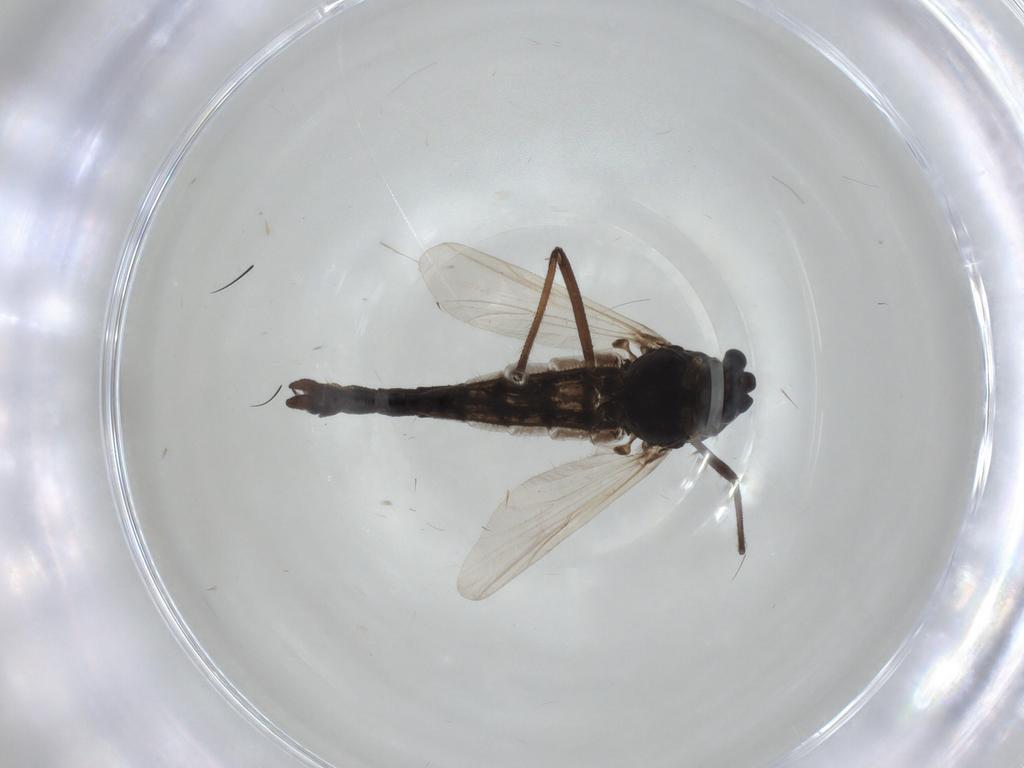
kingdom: Animalia
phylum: Arthropoda
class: Insecta
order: Diptera
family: Chironomidae
